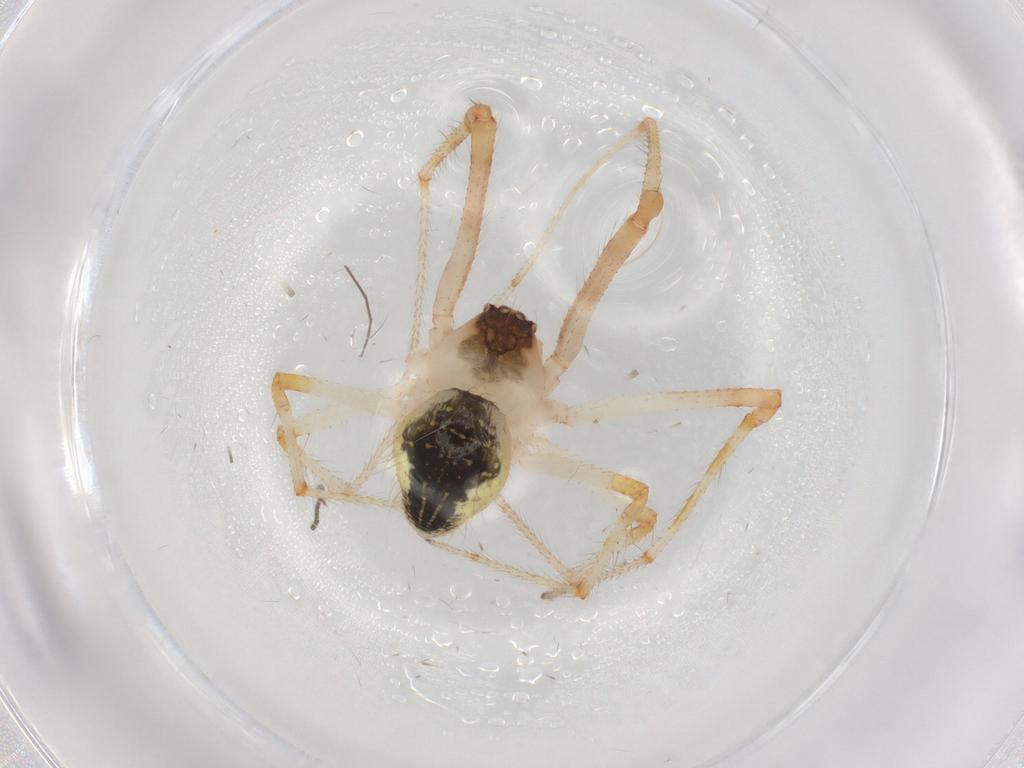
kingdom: Animalia
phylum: Arthropoda
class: Arachnida
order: Araneae
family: Theridiidae
